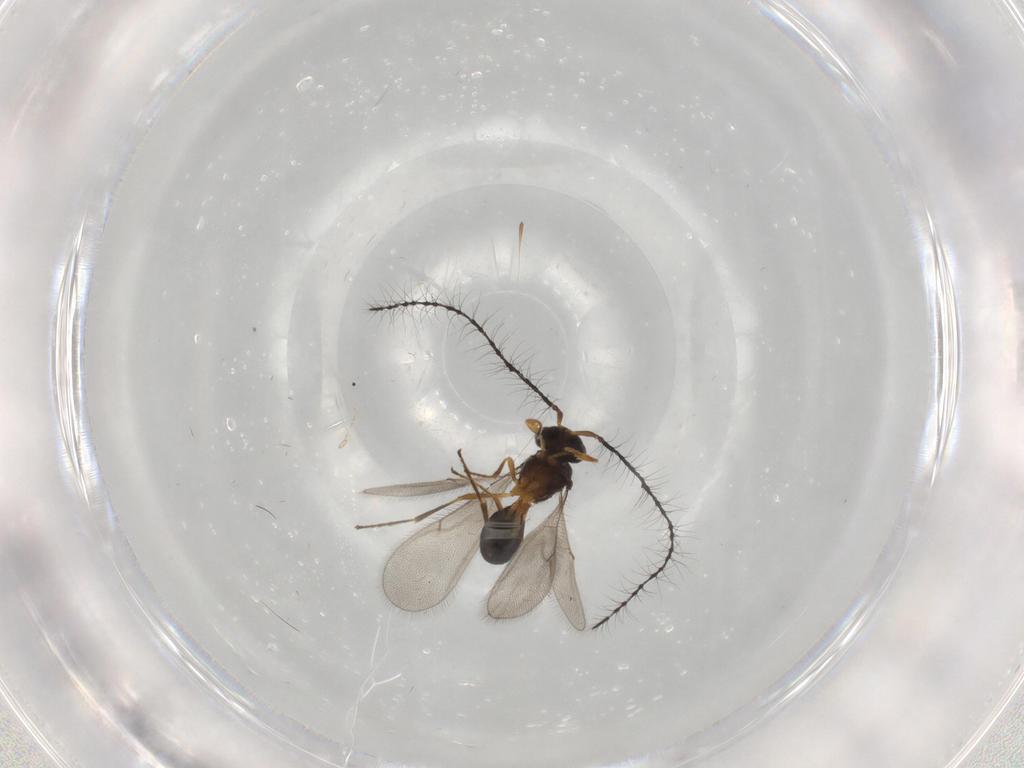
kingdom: Animalia
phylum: Arthropoda
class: Insecta
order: Hymenoptera
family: Scelionidae
